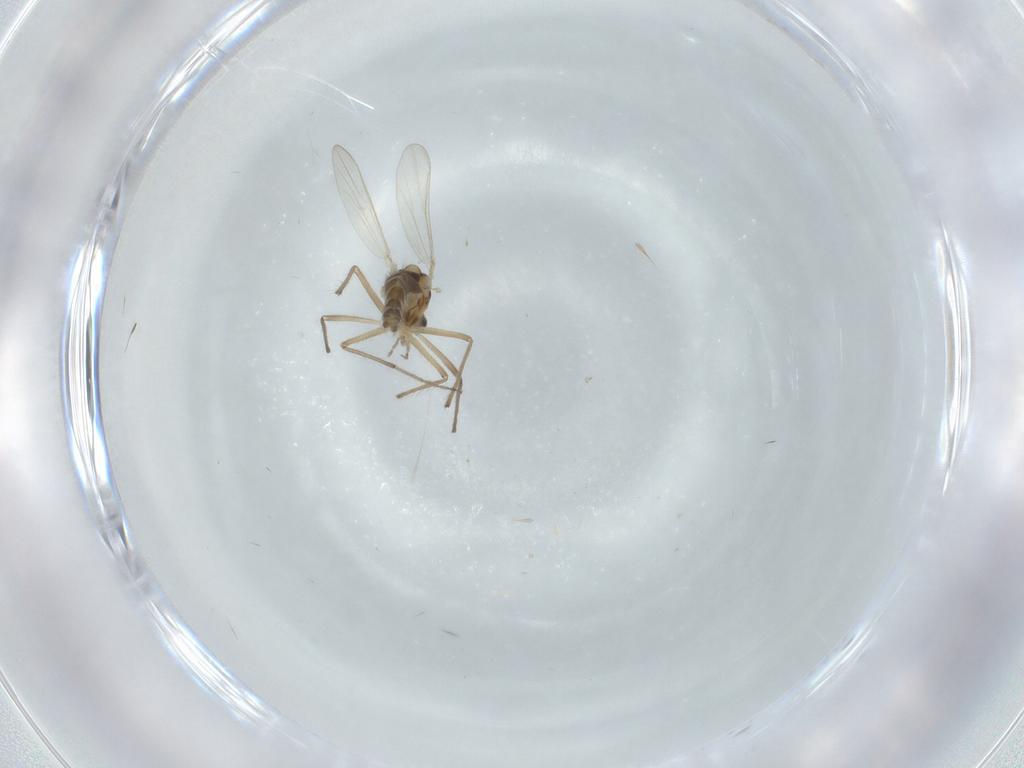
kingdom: Animalia
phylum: Arthropoda
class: Insecta
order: Diptera
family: Chironomidae
